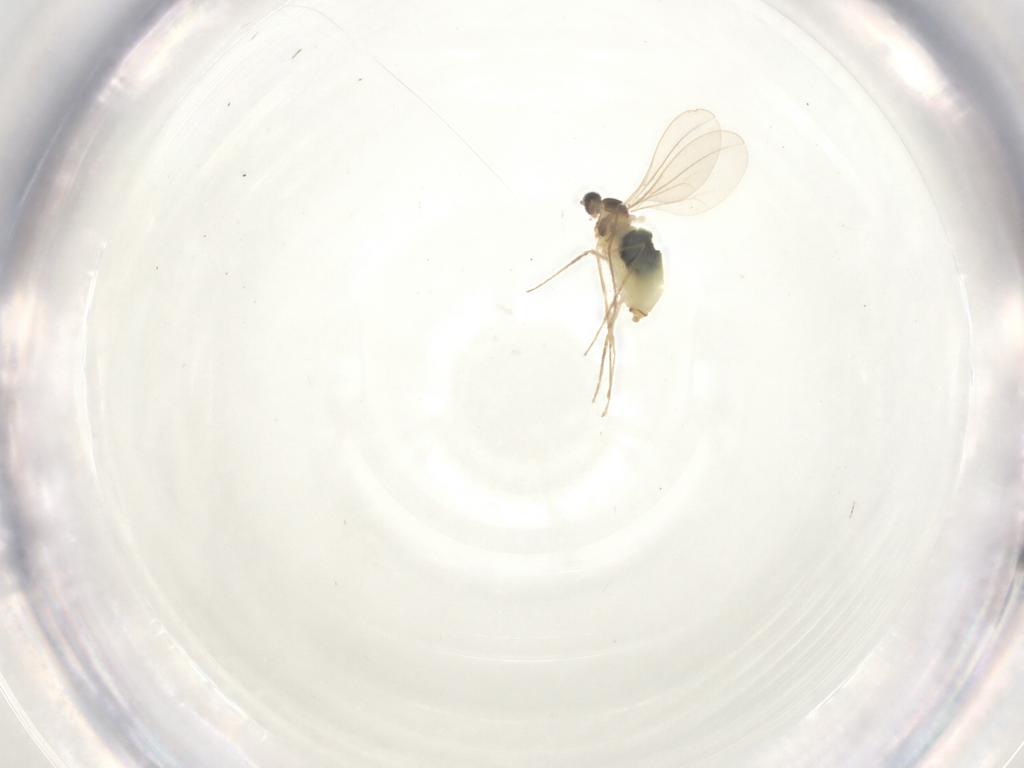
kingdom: Animalia
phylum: Arthropoda
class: Insecta
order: Diptera
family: Cecidomyiidae
